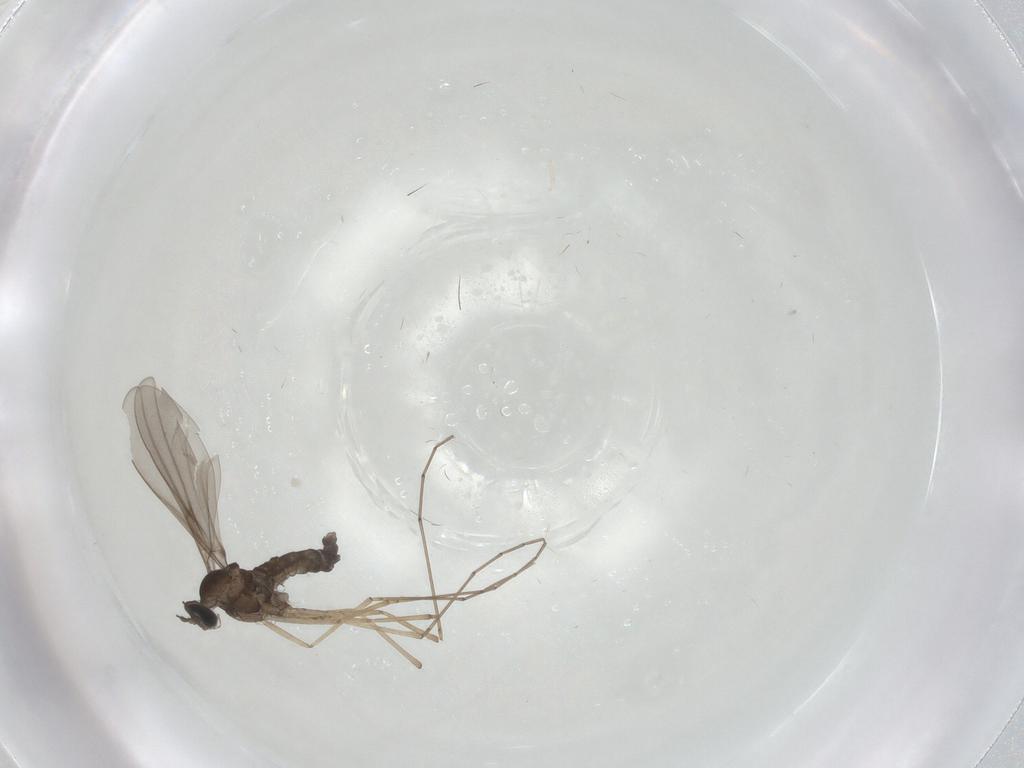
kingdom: Animalia
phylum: Arthropoda
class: Insecta
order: Diptera
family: Cecidomyiidae
